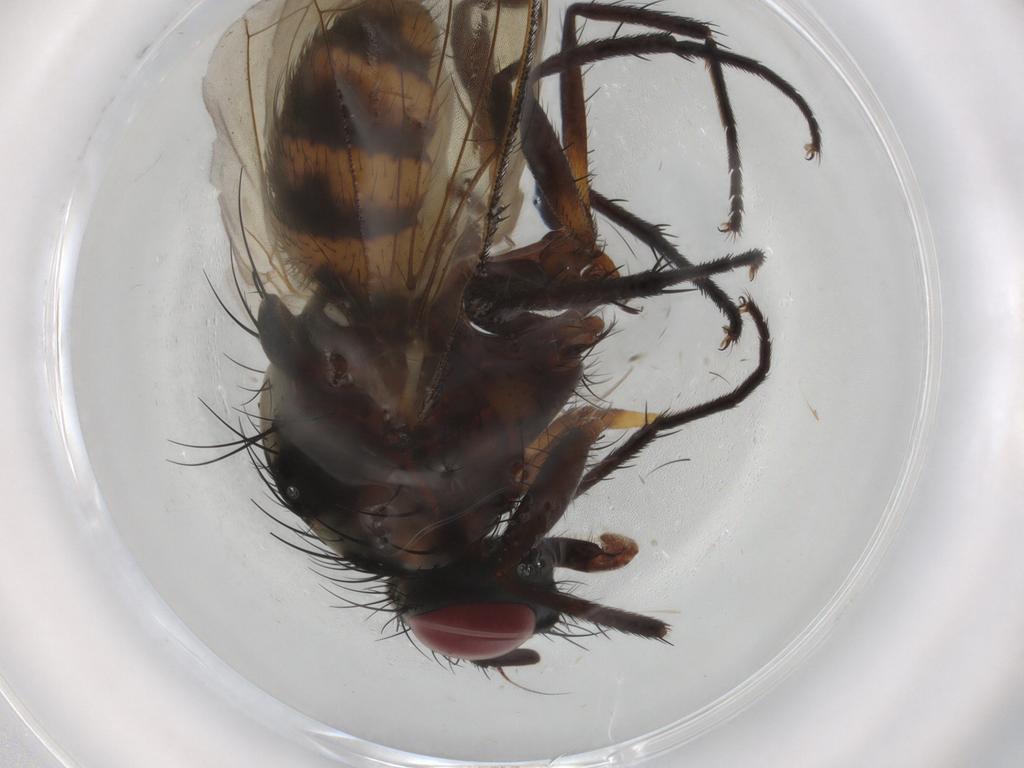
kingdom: Animalia
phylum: Arthropoda
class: Insecta
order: Diptera
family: Anthomyiidae
